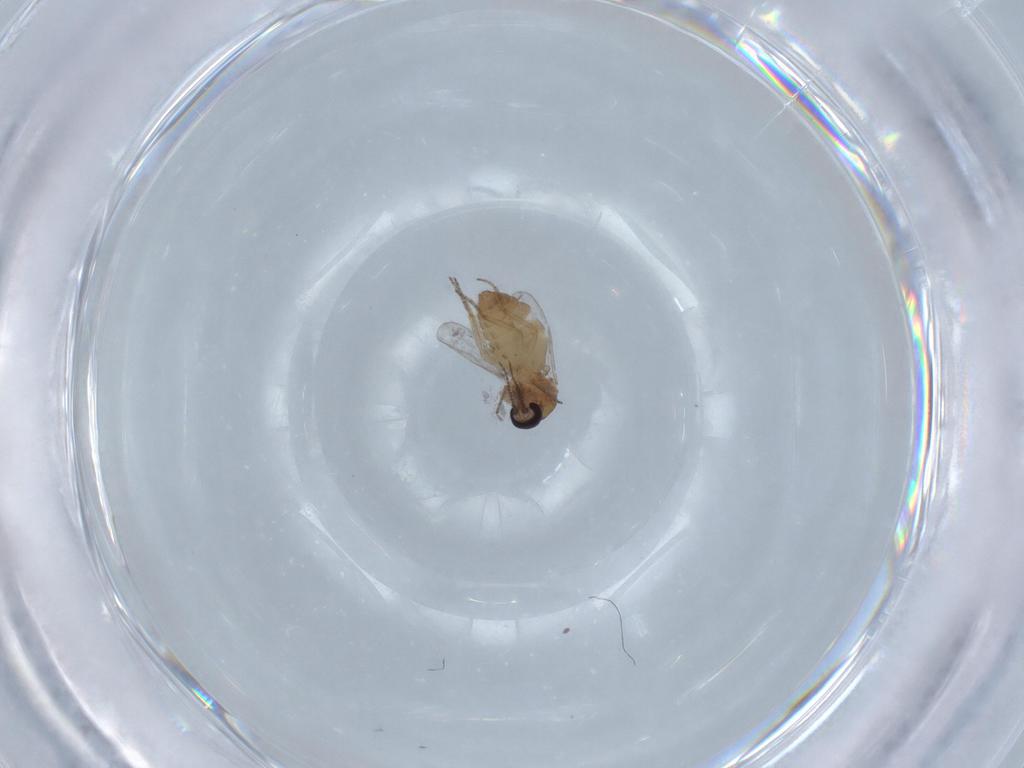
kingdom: Animalia
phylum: Arthropoda
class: Insecta
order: Diptera
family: Ceratopogonidae
